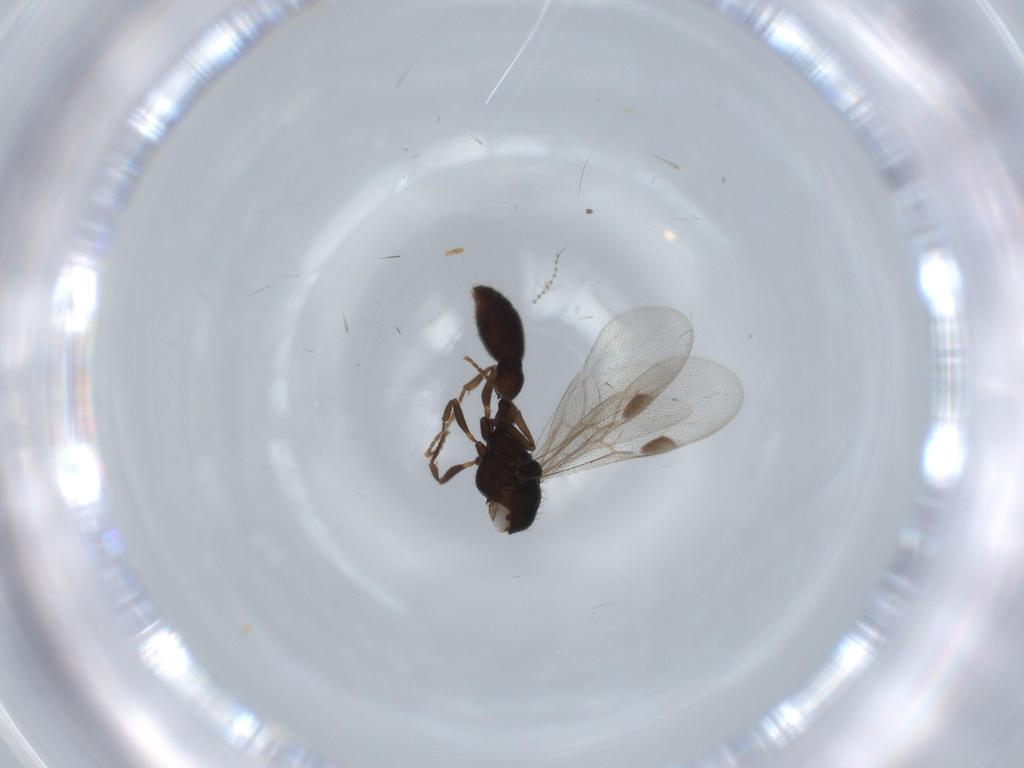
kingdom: Animalia
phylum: Arthropoda
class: Insecta
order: Hymenoptera
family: Formicidae
